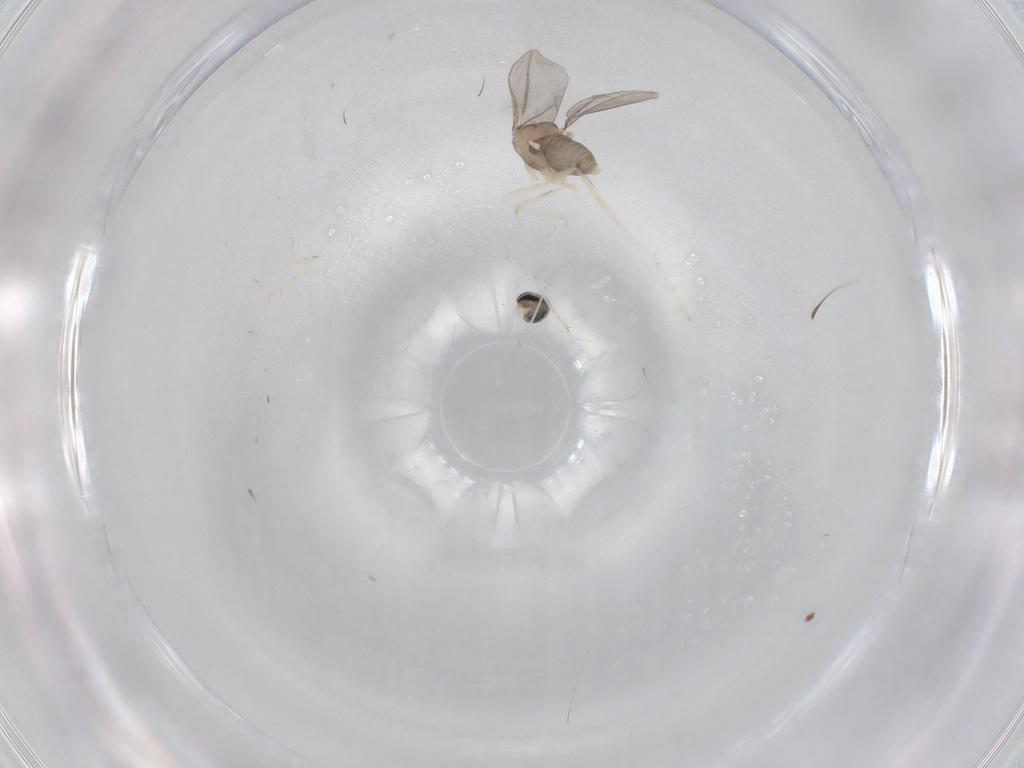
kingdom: Animalia
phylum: Arthropoda
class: Insecta
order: Diptera
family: Cecidomyiidae
